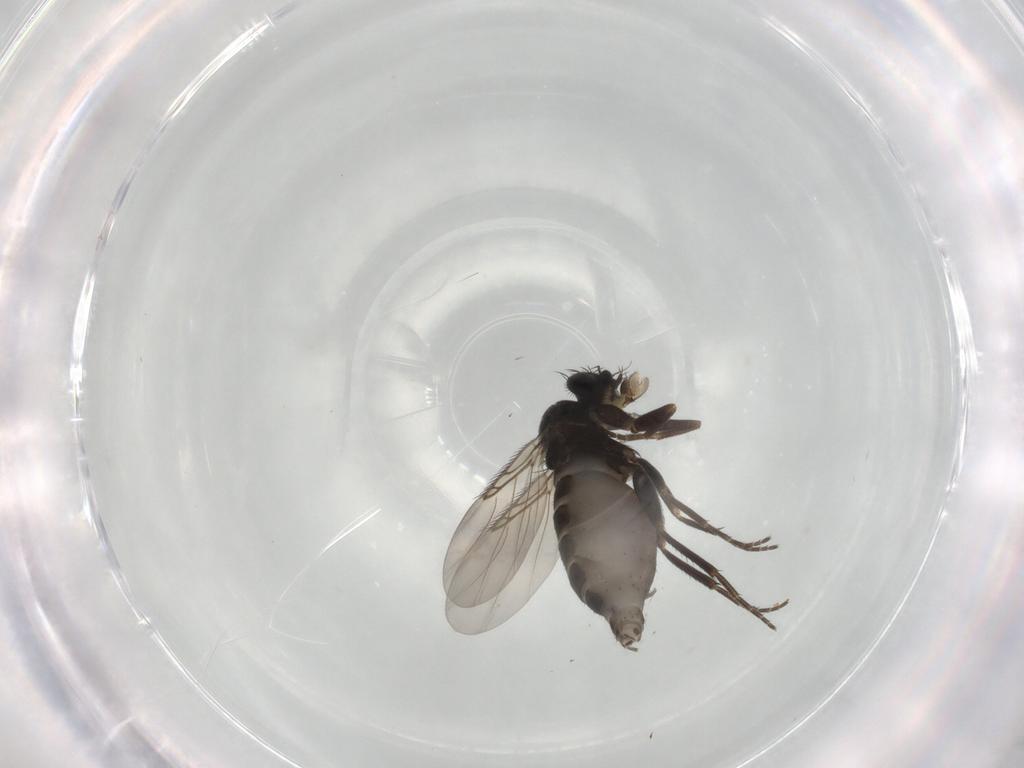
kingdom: Animalia
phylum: Arthropoda
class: Insecta
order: Diptera
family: Phoridae
